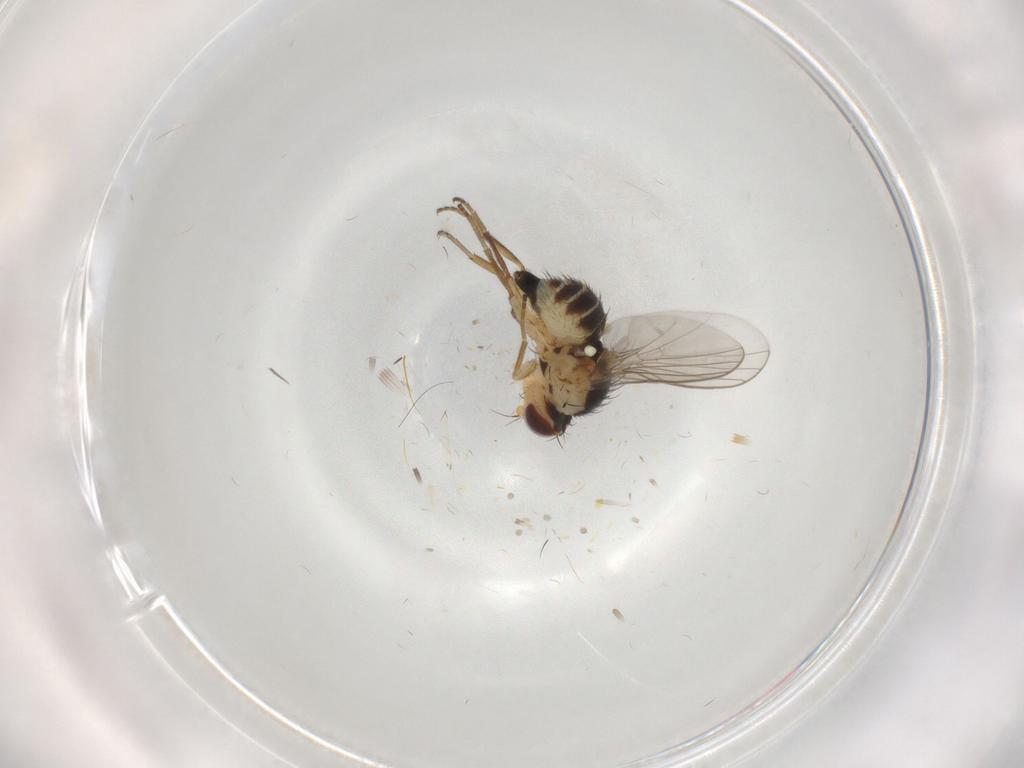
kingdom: Animalia
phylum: Arthropoda
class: Insecta
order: Diptera
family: Agromyzidae
